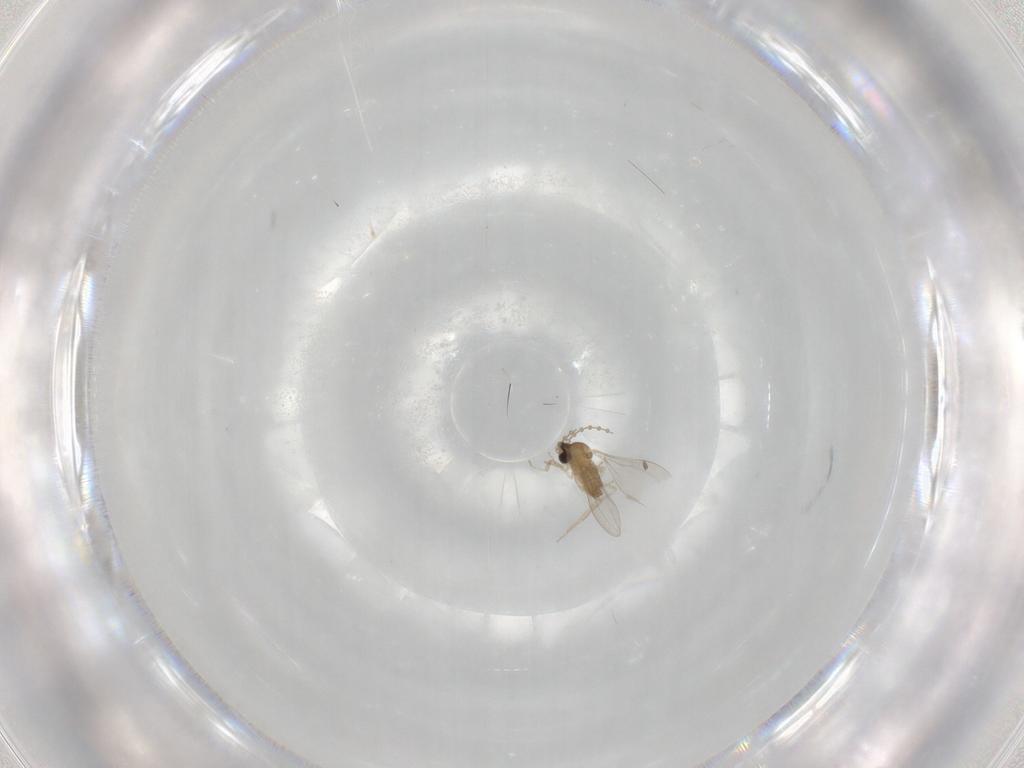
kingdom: Animalia
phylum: Arthropoda
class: Insecta
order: Diptera
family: Cecidomyiidae
